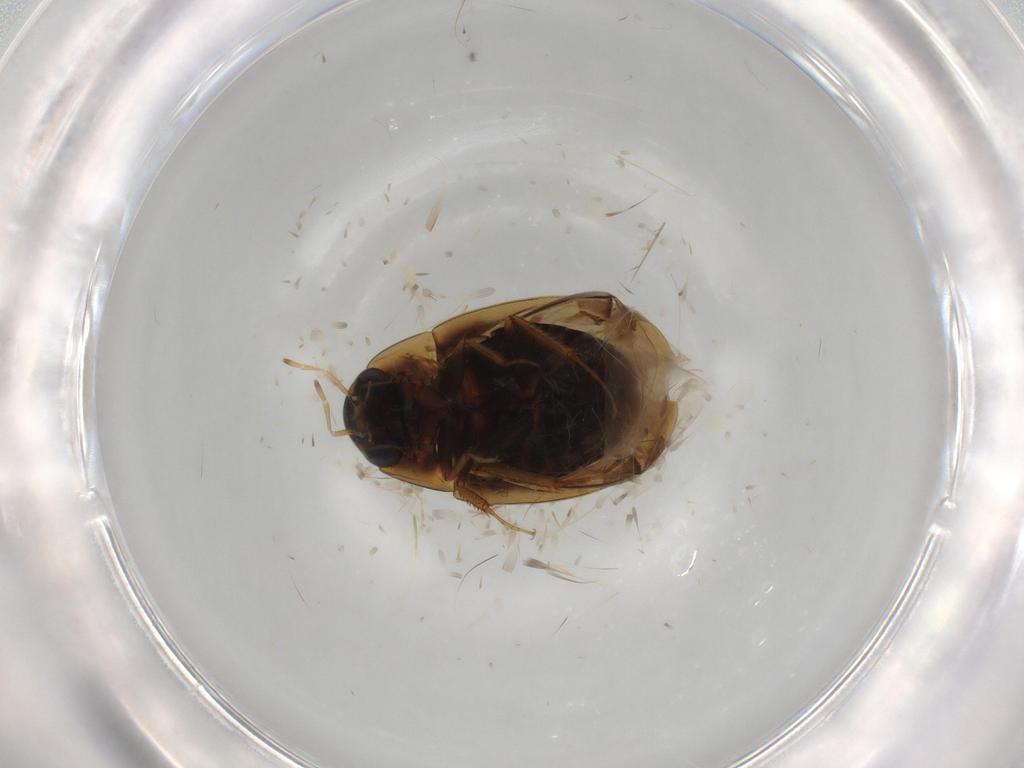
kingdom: Animalia
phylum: Arthropoda
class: Insecta
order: Coleoptera
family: Hydrophilidae
